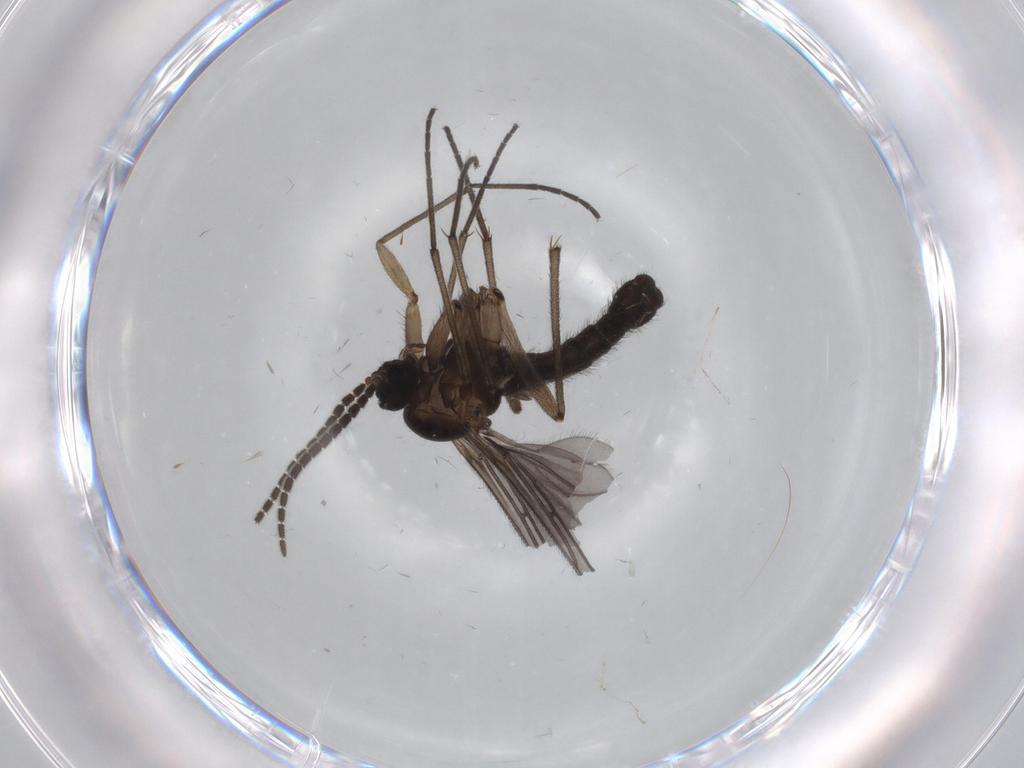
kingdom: Animalia
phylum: Arthropoda
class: Insecta
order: Diptera
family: Sciaridae
